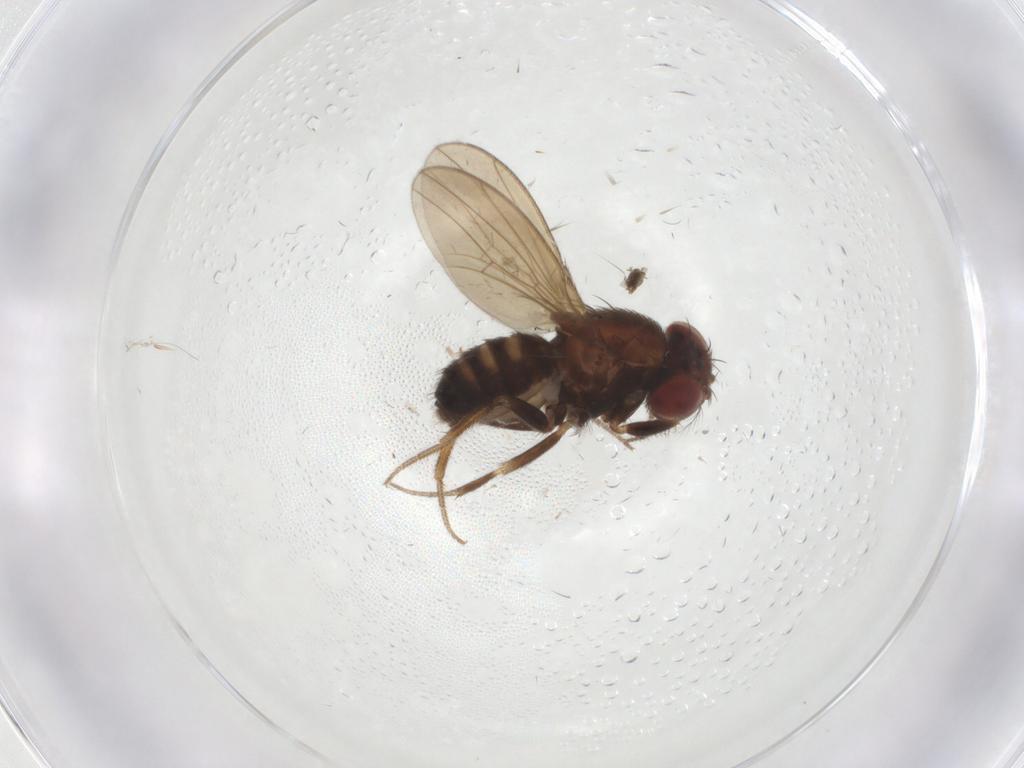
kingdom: Animalia
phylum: Arthropoda
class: Insecta
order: Diptera
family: Drosophilidae
